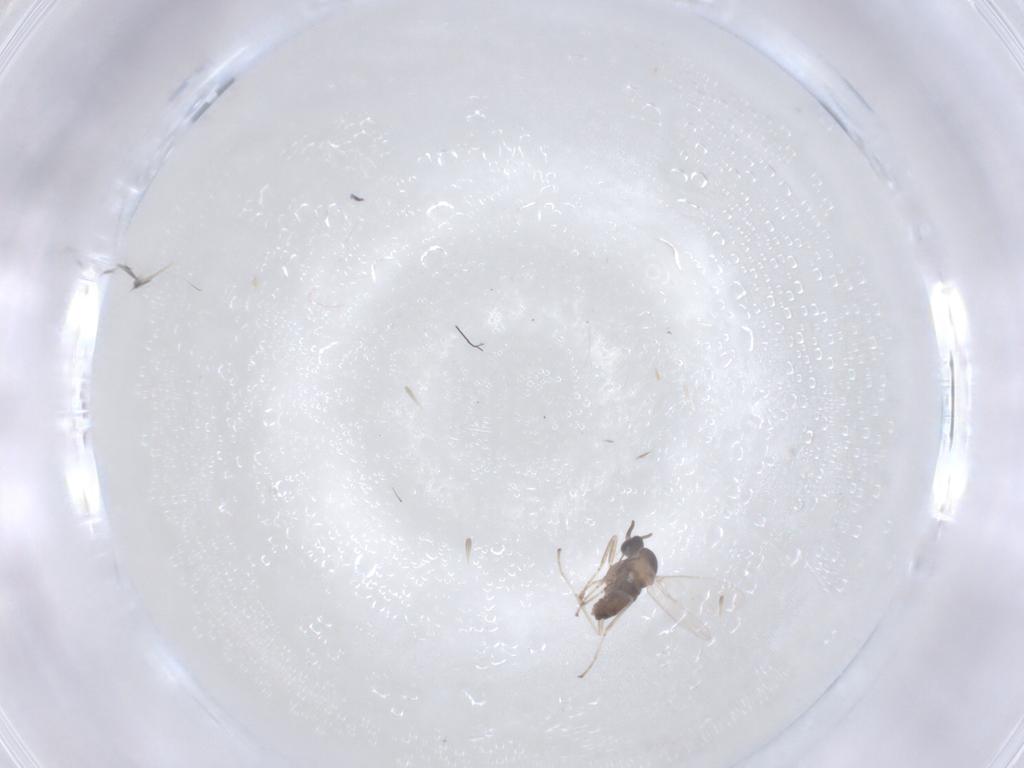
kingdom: Animalia
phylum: Arthropoda
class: Insecta
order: Diptera
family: Cecidomyiidae
